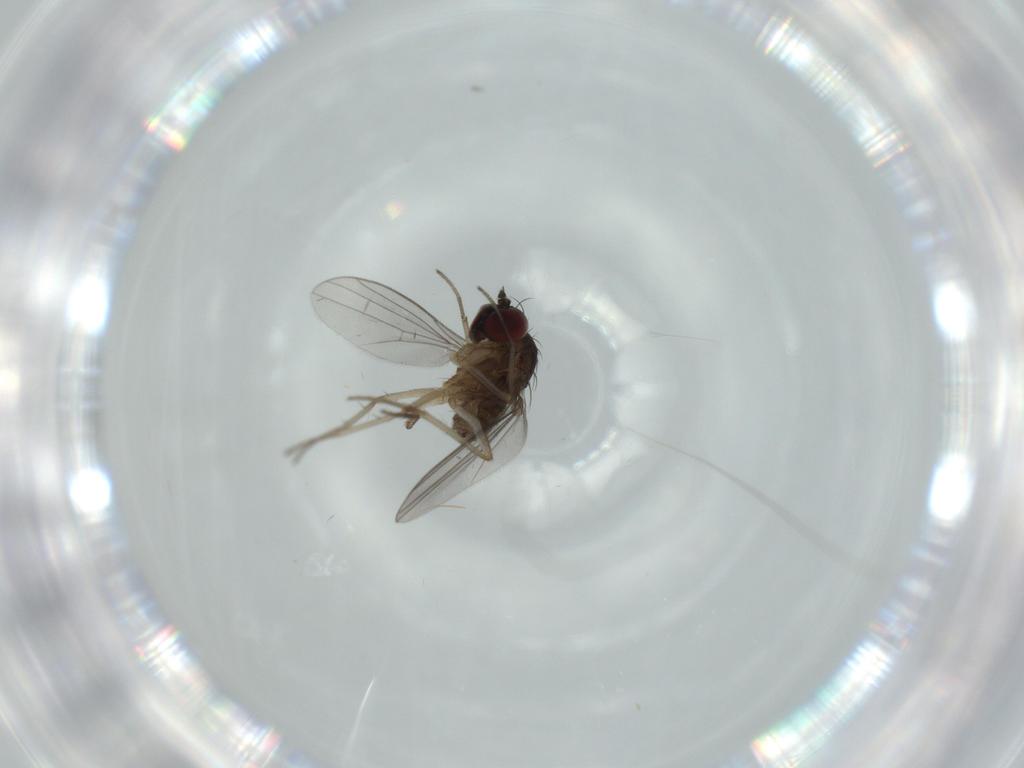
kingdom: Animalia
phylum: Arthropoda
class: Insecta
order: Diptera
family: Dolichopodidae
